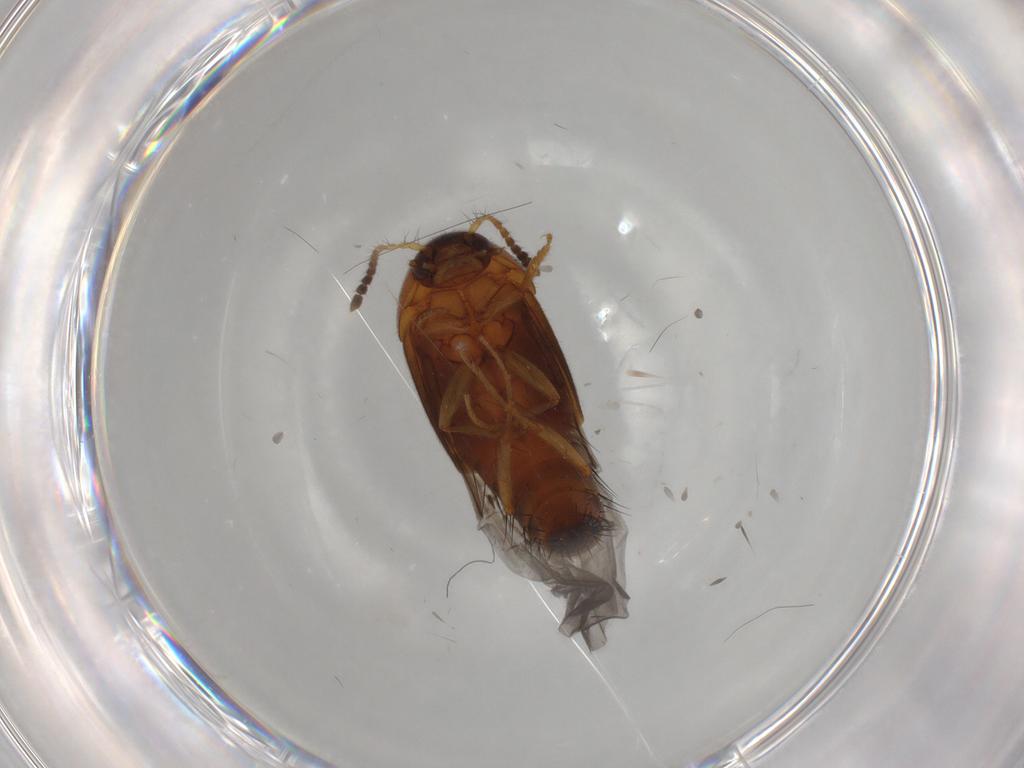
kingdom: Animalia
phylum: Arthropoda
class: Insecta
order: Coleoptera
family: Staphylinidae
